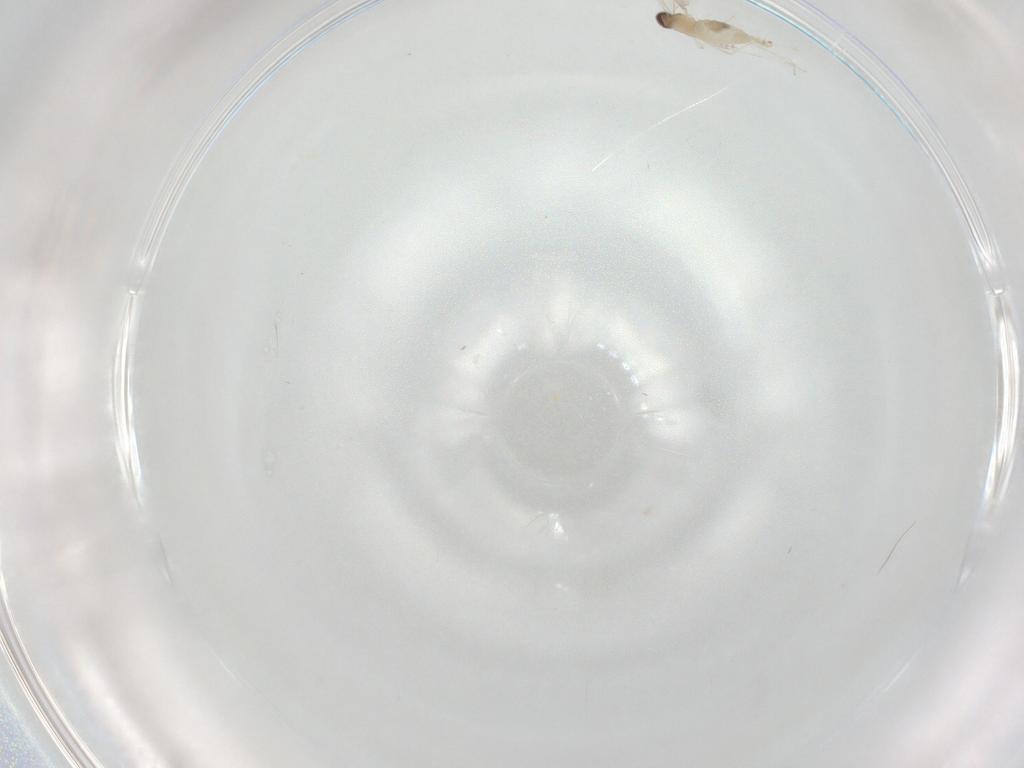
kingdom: Animalia
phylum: Arthropoda
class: Insecta
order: Diptera
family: Cecidomyiidae
